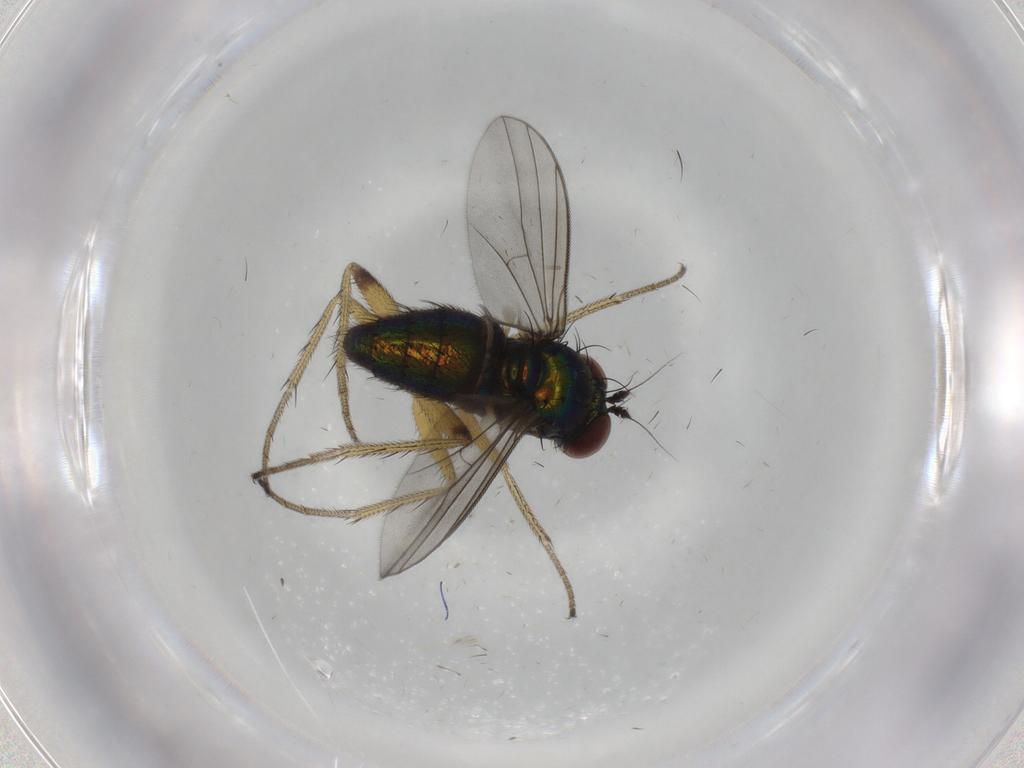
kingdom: Animalia
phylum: Arthropoda
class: Insecta
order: Diptera
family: Dolichopodidae
